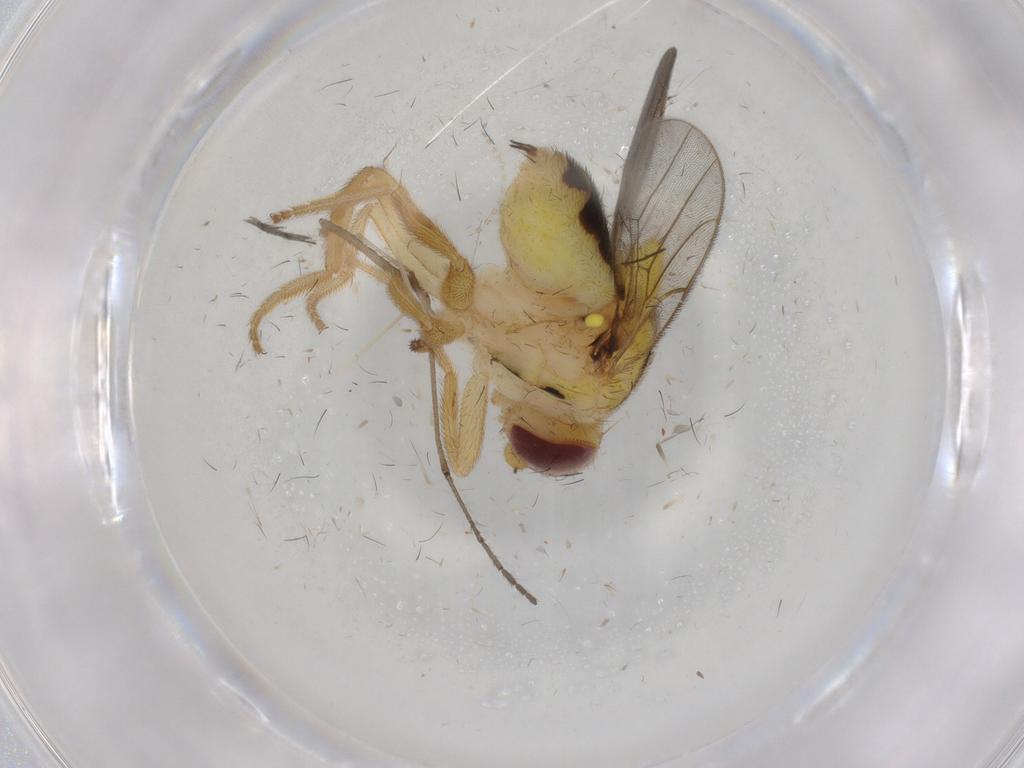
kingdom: Animalia
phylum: Arthropoda
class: Insecta
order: Diptera
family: Chloropidae
